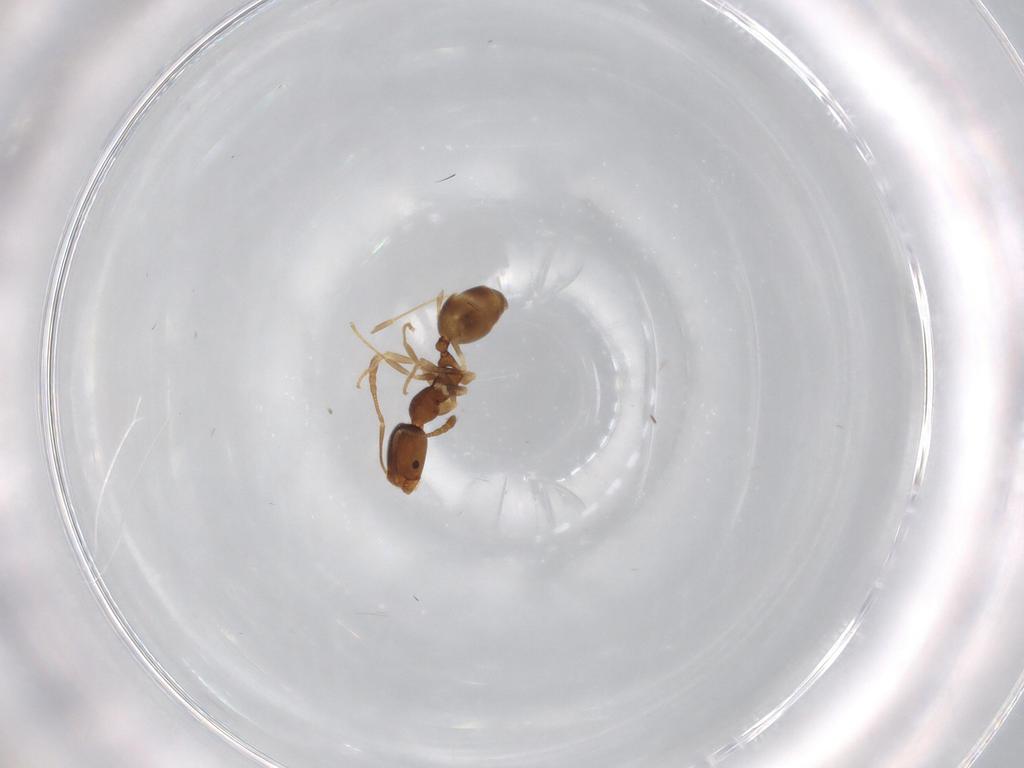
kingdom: Animalia
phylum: Arthropoda
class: Insecta
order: Hymenoptera
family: Formicidae
